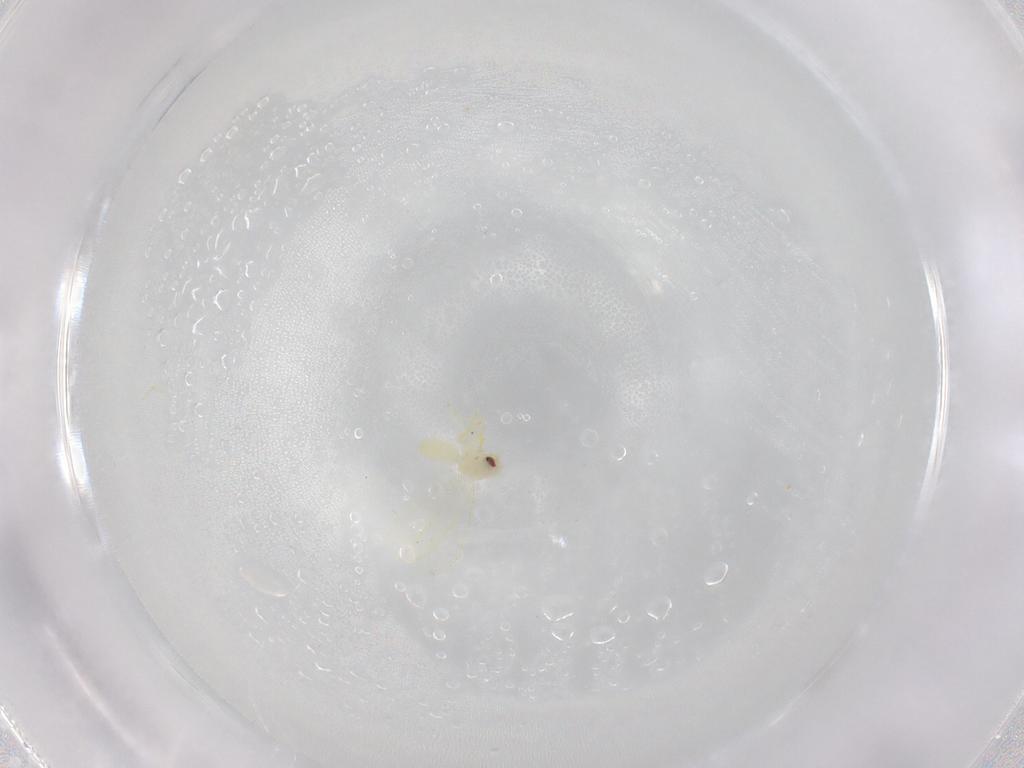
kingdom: Animalia
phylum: Arthropoda
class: Insecta
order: Hemiptera
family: Aleyrodidae
